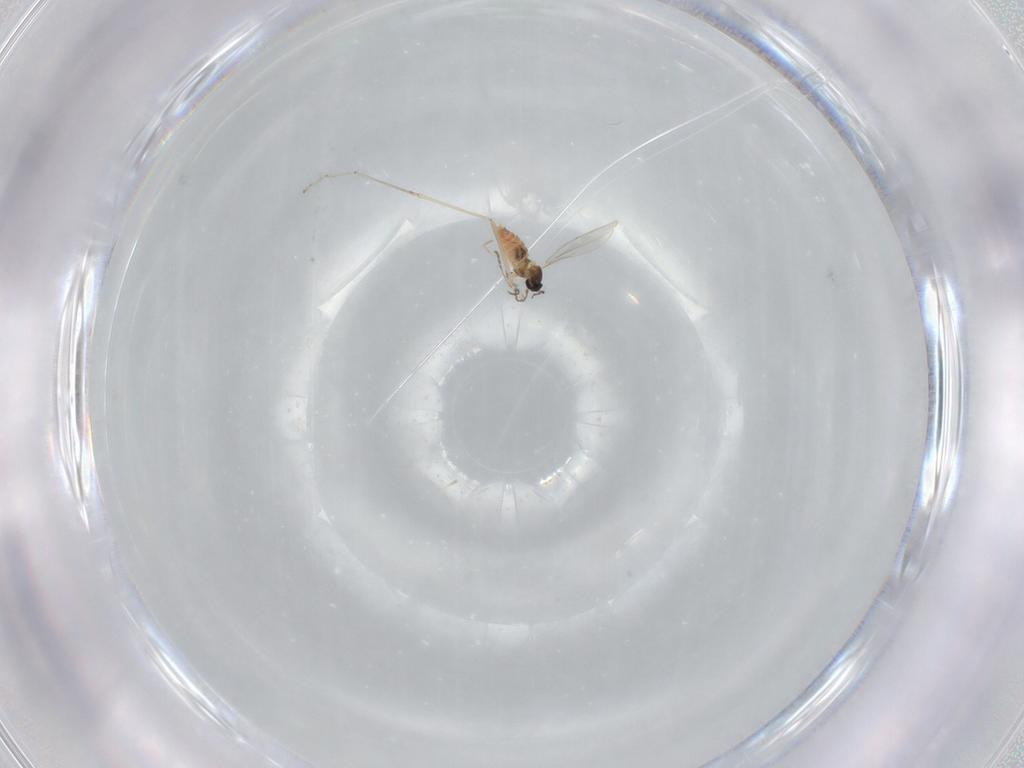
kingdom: Animalia
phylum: Arthropoda
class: Insecta
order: Diptera
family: Cecidomyiidae
